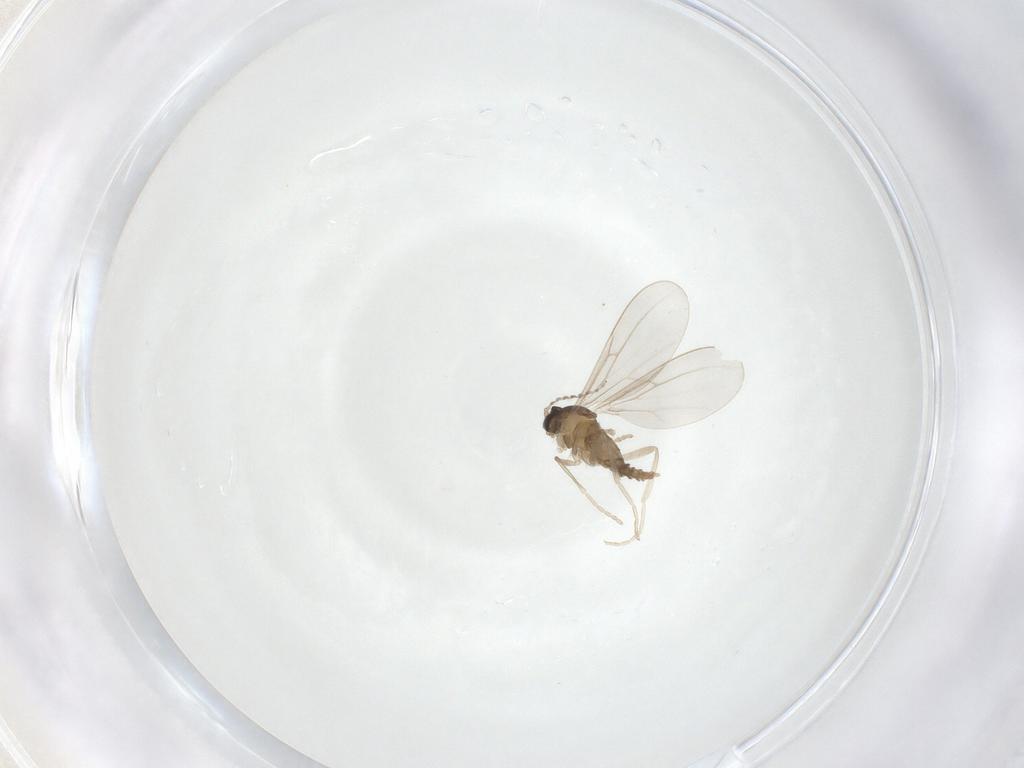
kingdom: Animalia
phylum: Arthropoda
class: Insecta
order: Diptera
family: Keroplatidae
